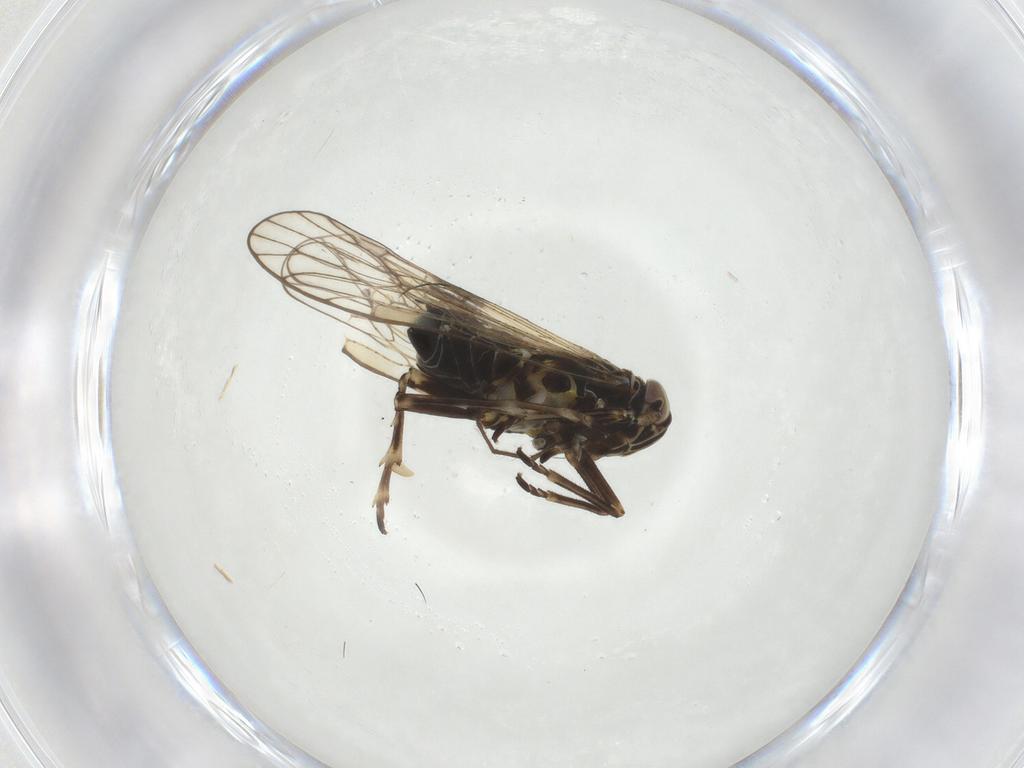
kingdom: Animalia
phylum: Arthropoda
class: Insecta
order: Hemiptera
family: Delphacidae
